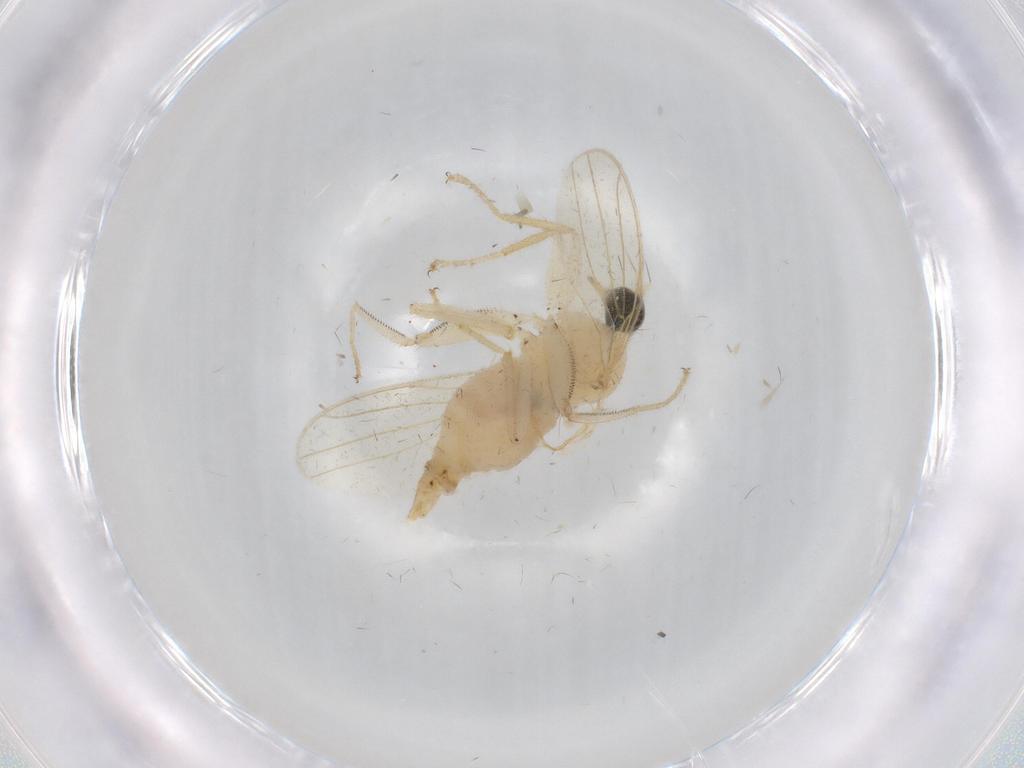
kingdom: Animalia
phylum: Arthropoda
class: Insecta
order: Diptera
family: Hybotidae
